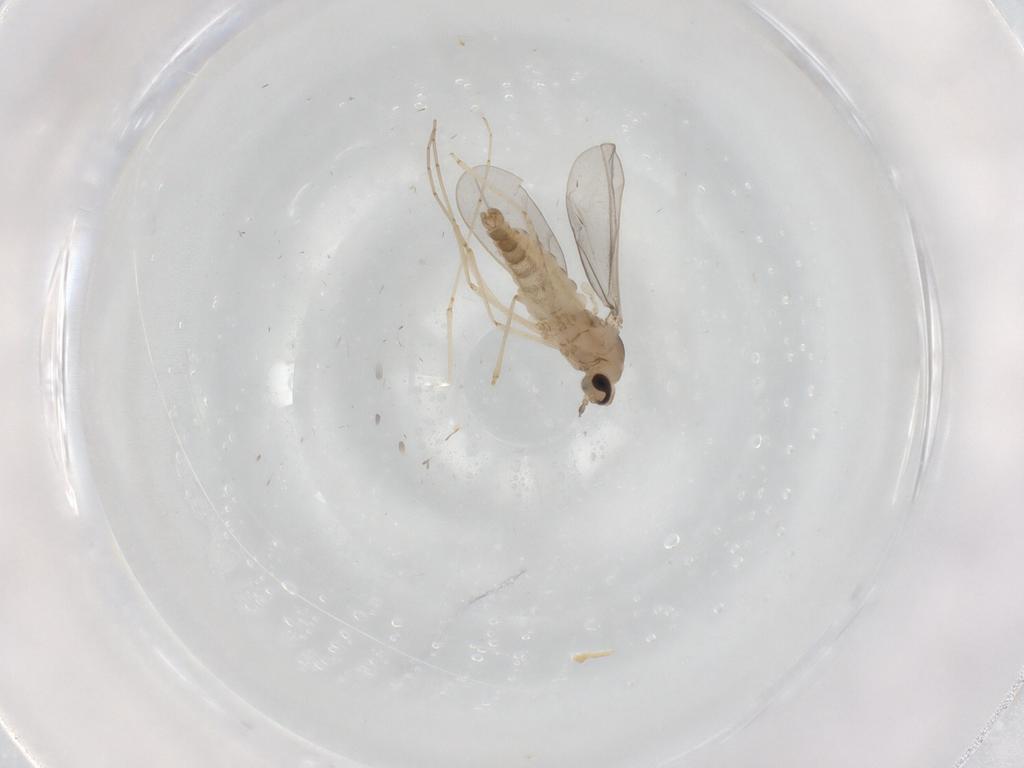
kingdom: Animalia
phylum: Arthropoda
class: Insecta
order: Diptera
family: Cecidomyiidae
